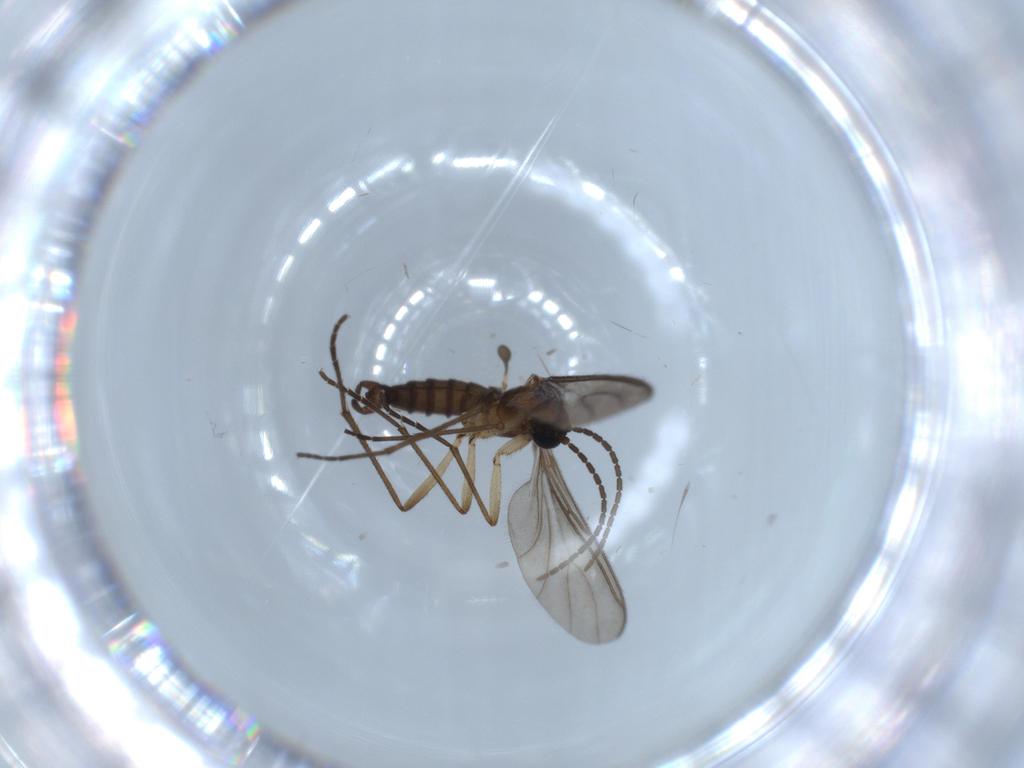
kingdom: Animalia
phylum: Arthropoda
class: Insecta
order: Diptera
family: Sciaridae
